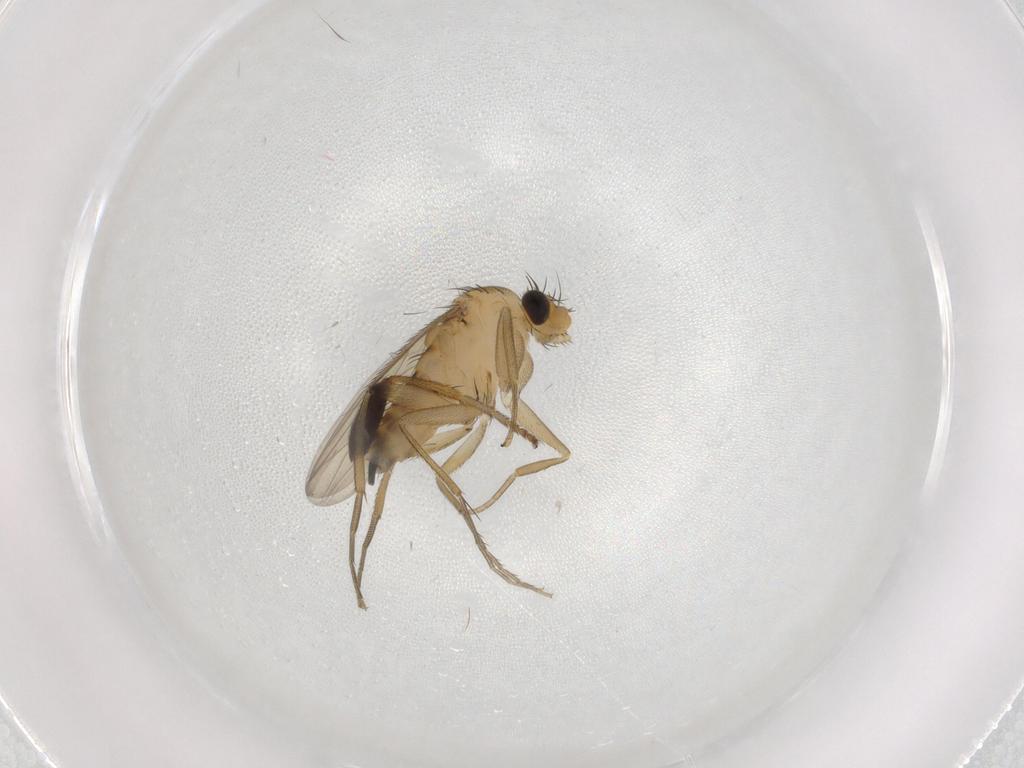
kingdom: Animalia
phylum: Arthropoda
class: Insecta
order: Diptera
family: Phoridae
